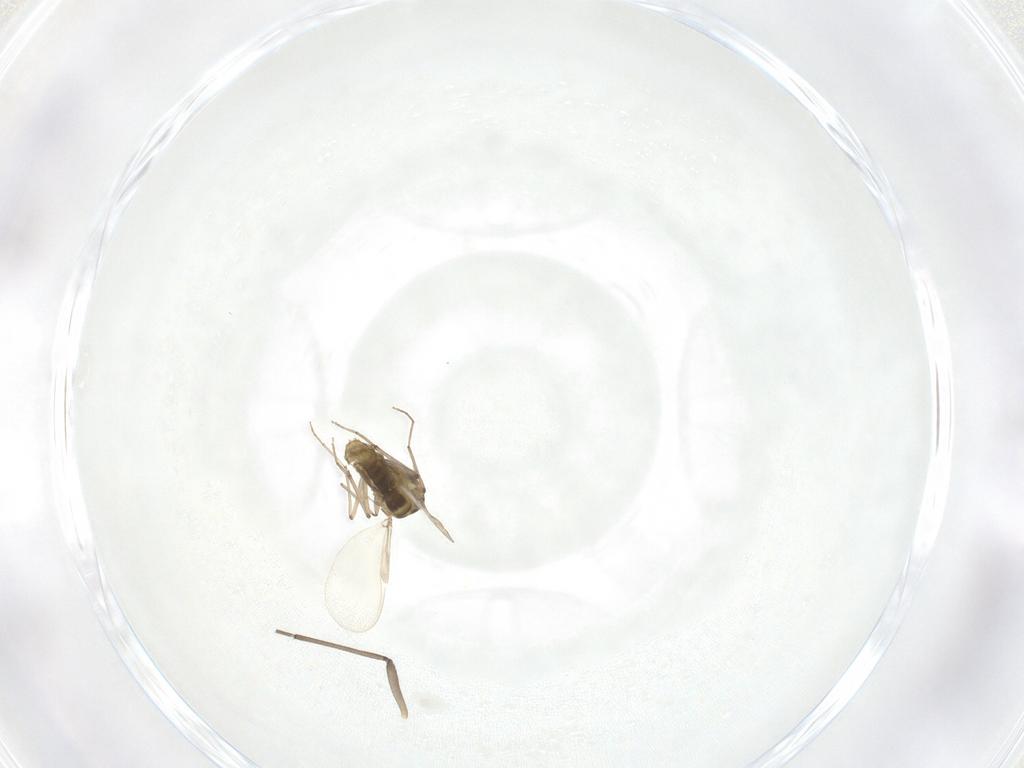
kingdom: Animalia
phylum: Arthropoda
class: Insecta
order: Diptera
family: Chironomidae
